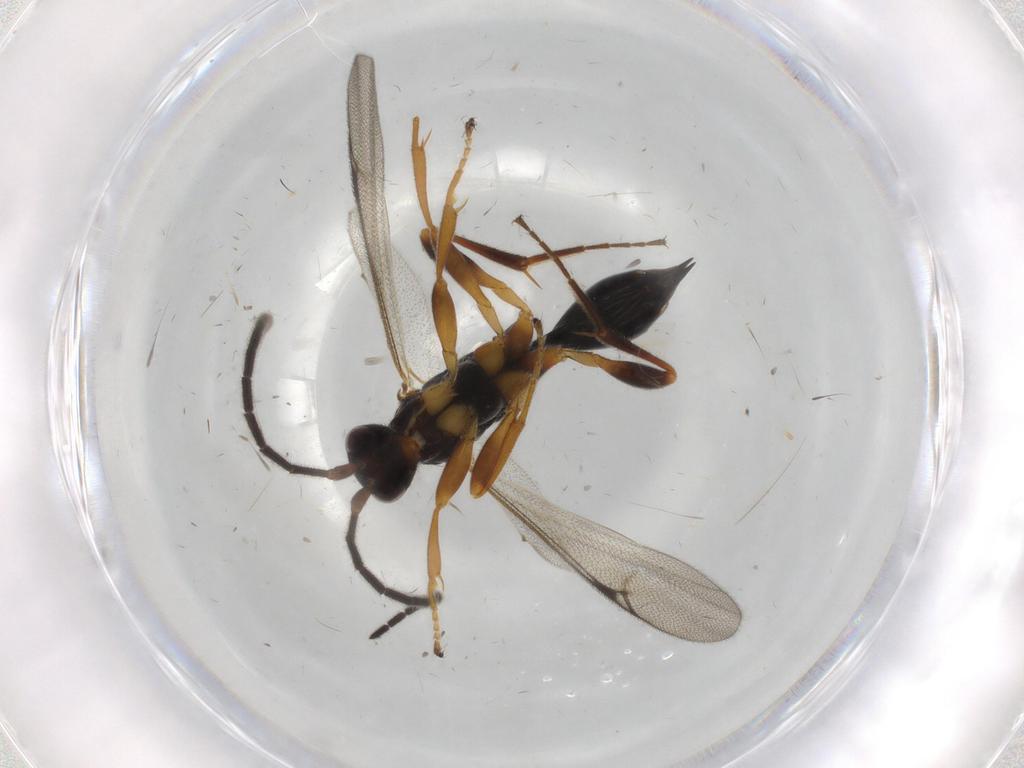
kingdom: Animalia
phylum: Arthropoda
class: Insecta
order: Hymenoptera
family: Proctotrupidae
